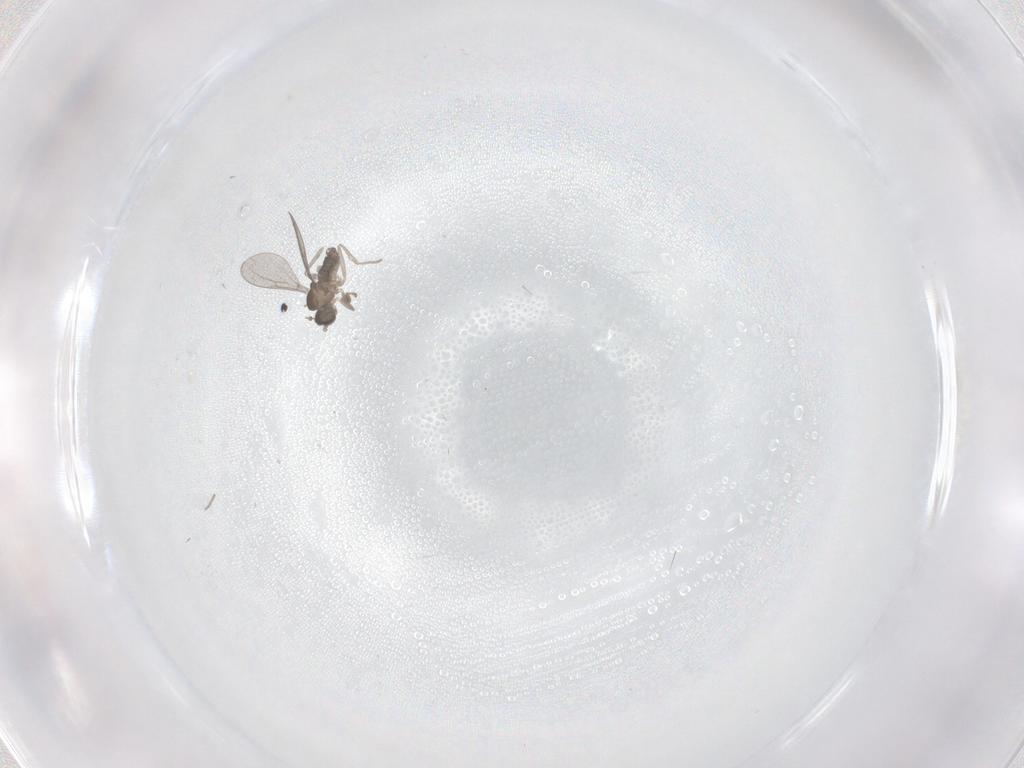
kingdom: Animalia
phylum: Arthropoda
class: Insecta
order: Diptera
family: Cecidomyiidae
